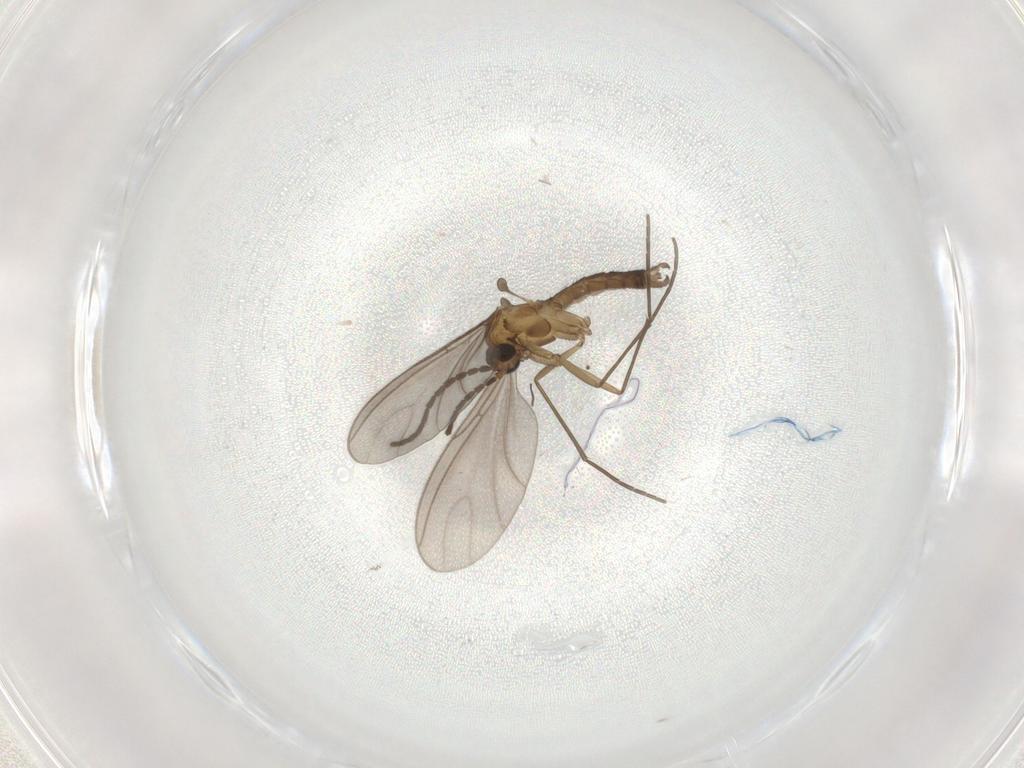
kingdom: Animalia
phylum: Arthropoda
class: Insecta
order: Diptera
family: Sciaridae
